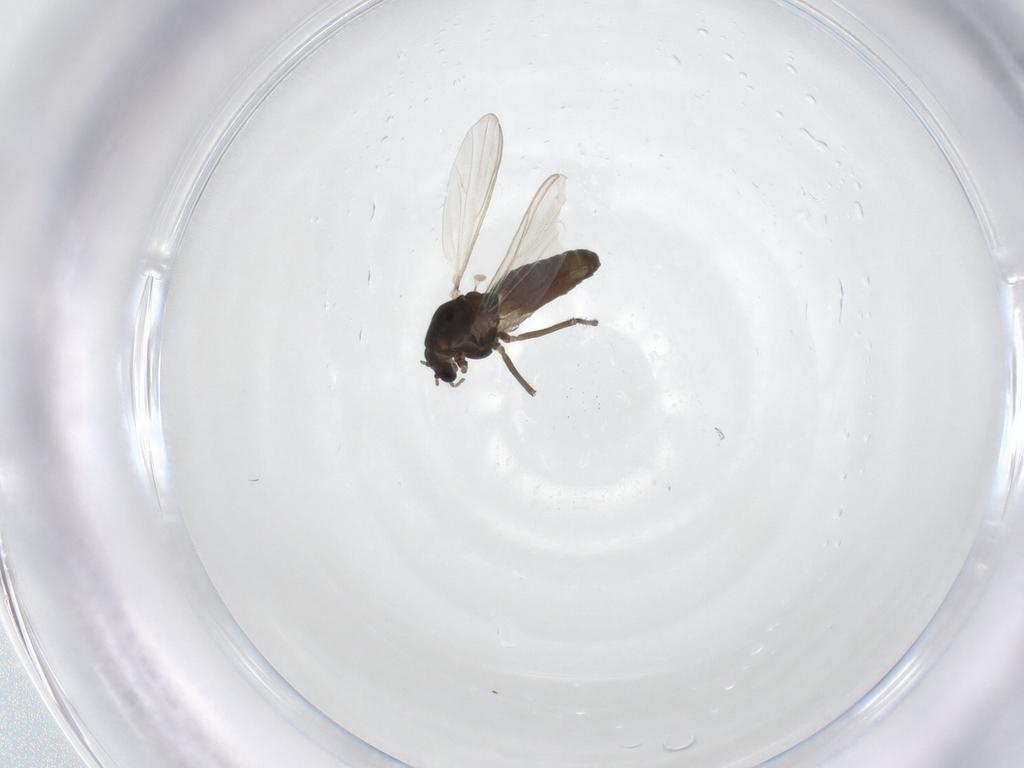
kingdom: Animalia
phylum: Arthropoda
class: Insecta
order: Diptera
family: Chironomidae
